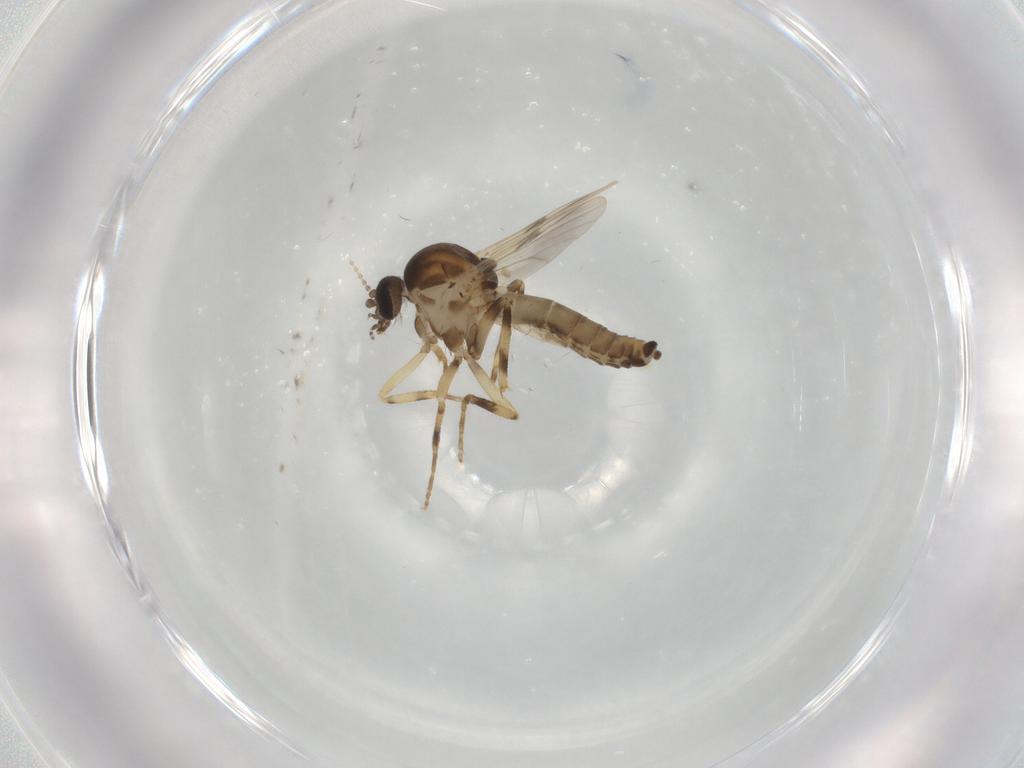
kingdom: Animalia
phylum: Arthropoda
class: Insecta
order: Diptera
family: Ceratopogonidae
